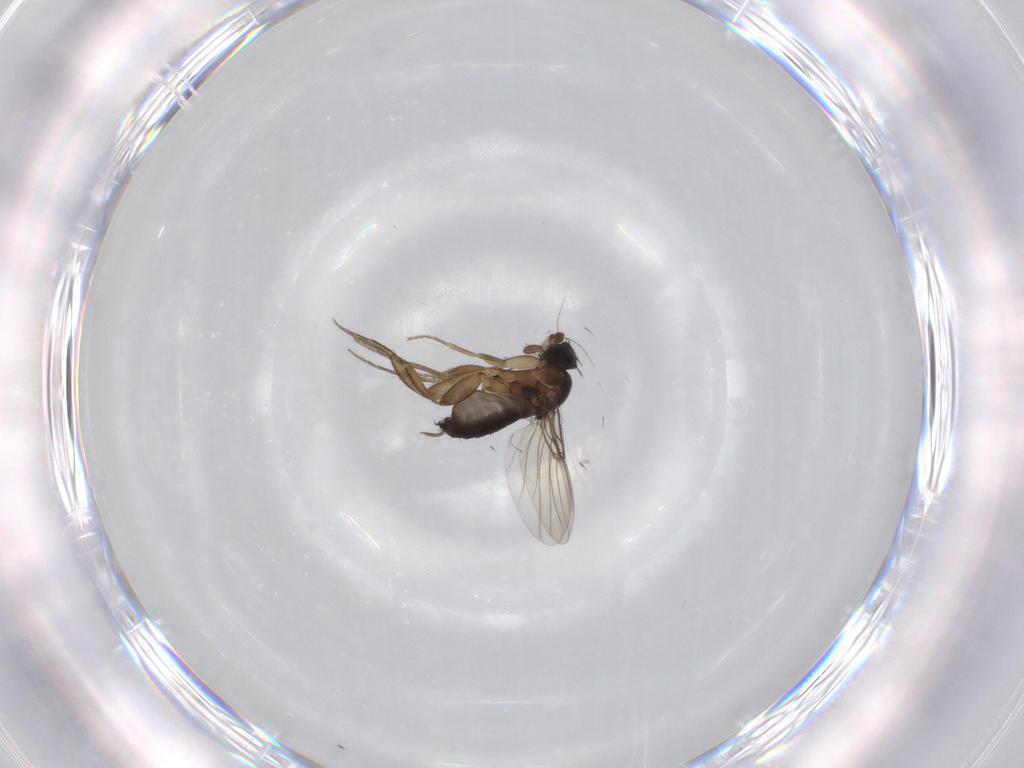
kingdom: Animalia
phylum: Arthropoda
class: Insecta
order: Diptera
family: Phoridae
